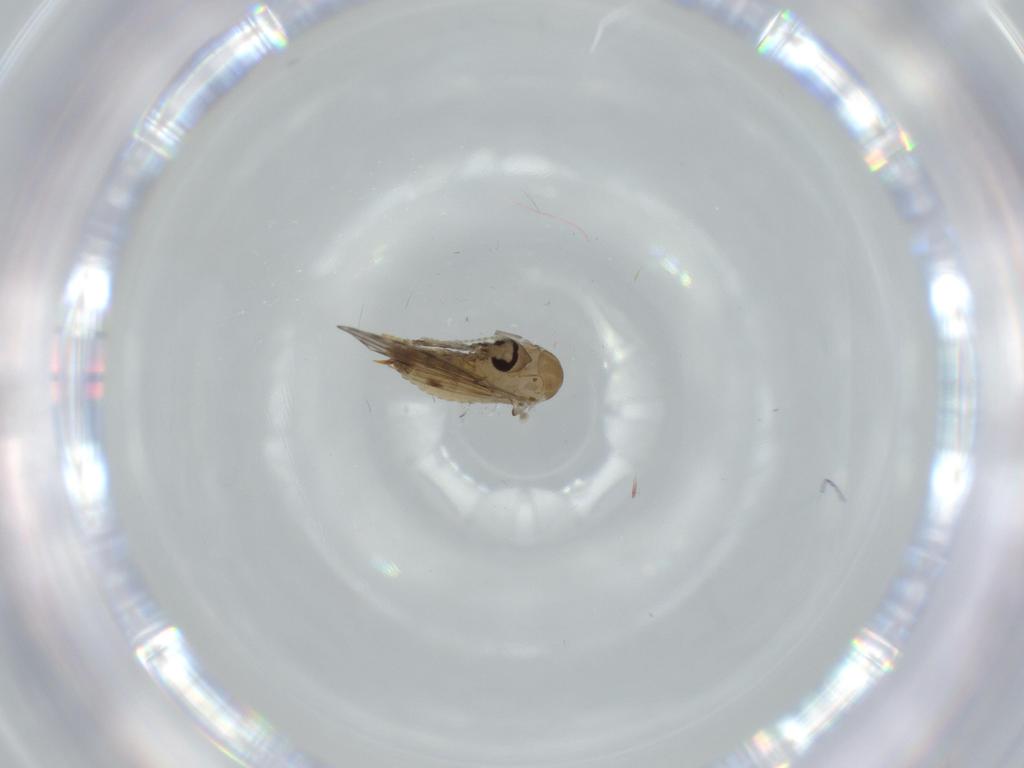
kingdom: Animalia
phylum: Arthropoda
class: Insecta
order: Diptera
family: Psychodidae
